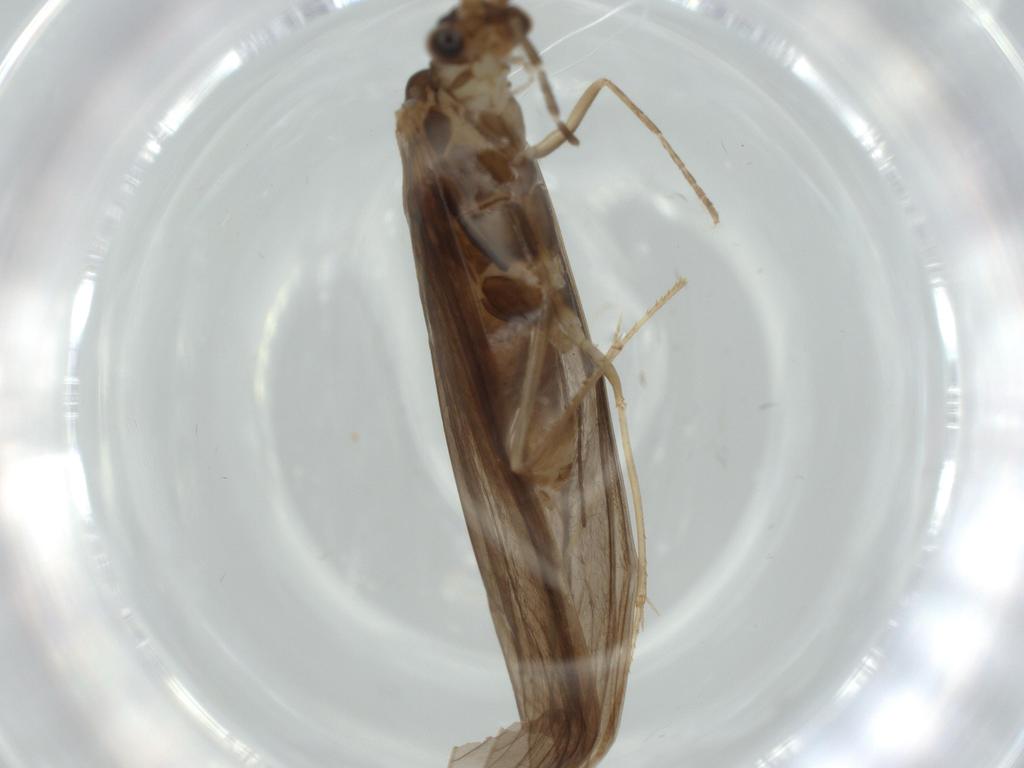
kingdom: Animalia
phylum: Arthropoda
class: Insecta
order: Trichoptera
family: Leptoceridae
